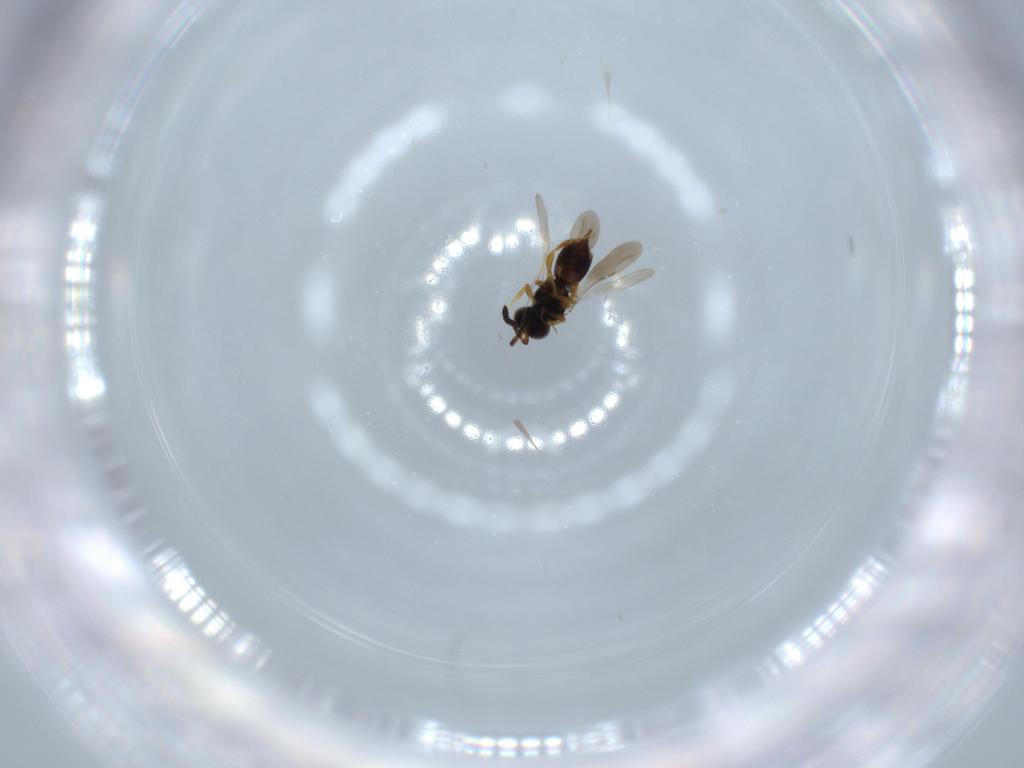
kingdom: Animalia
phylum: Arthropoda
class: Insecta
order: Hymenoptera
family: Ceraphronidae
